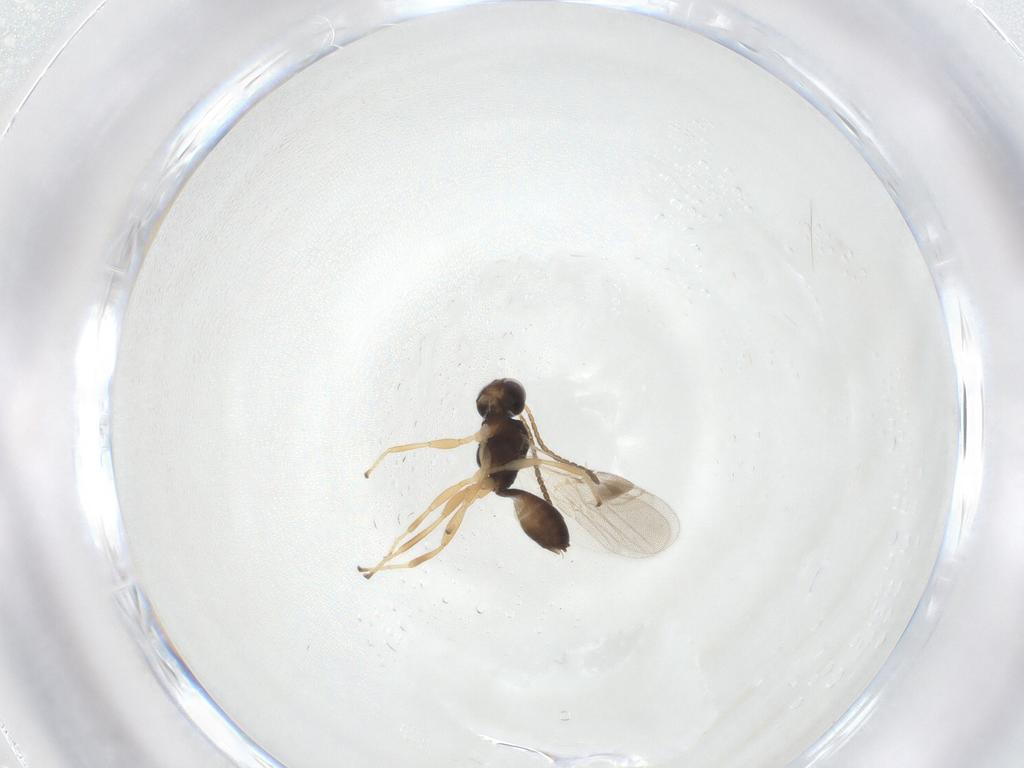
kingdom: Animalia
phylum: Arthropoda
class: Insecta
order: Hymenoptera
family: Braconidae
